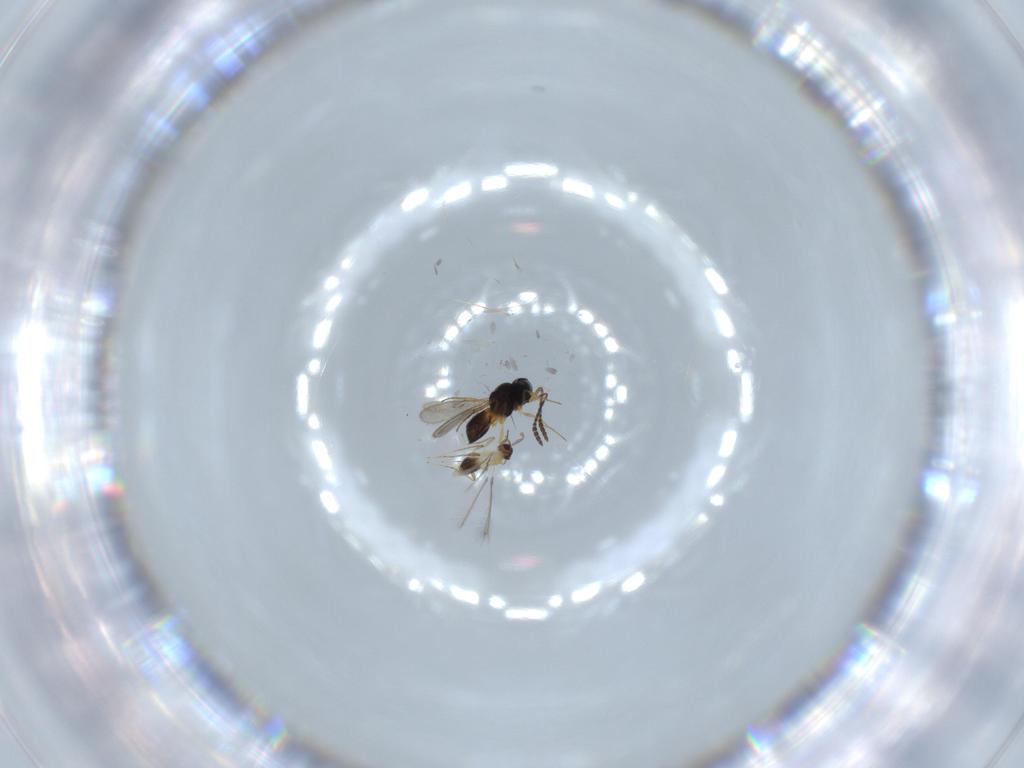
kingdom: Animalia
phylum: Arthropoda
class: Insecta
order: Hymenoptera
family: Scelionidae
